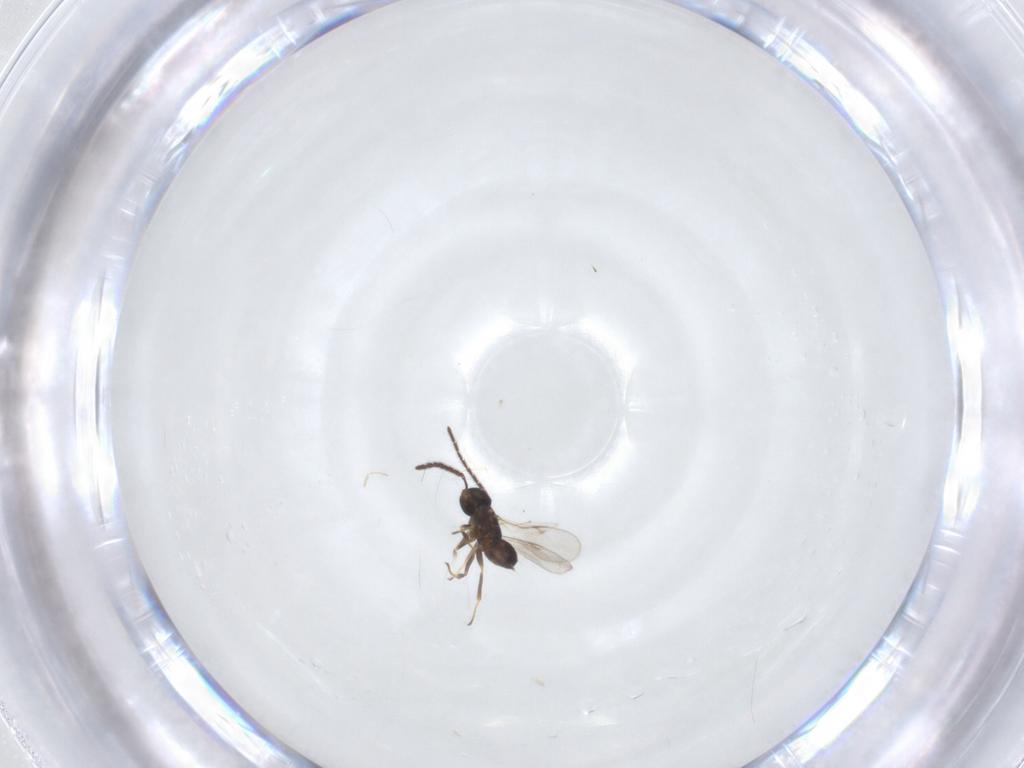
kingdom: Animalia
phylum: Arthropoda
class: Insecta
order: Hymenoptera
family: Encyrtidae
